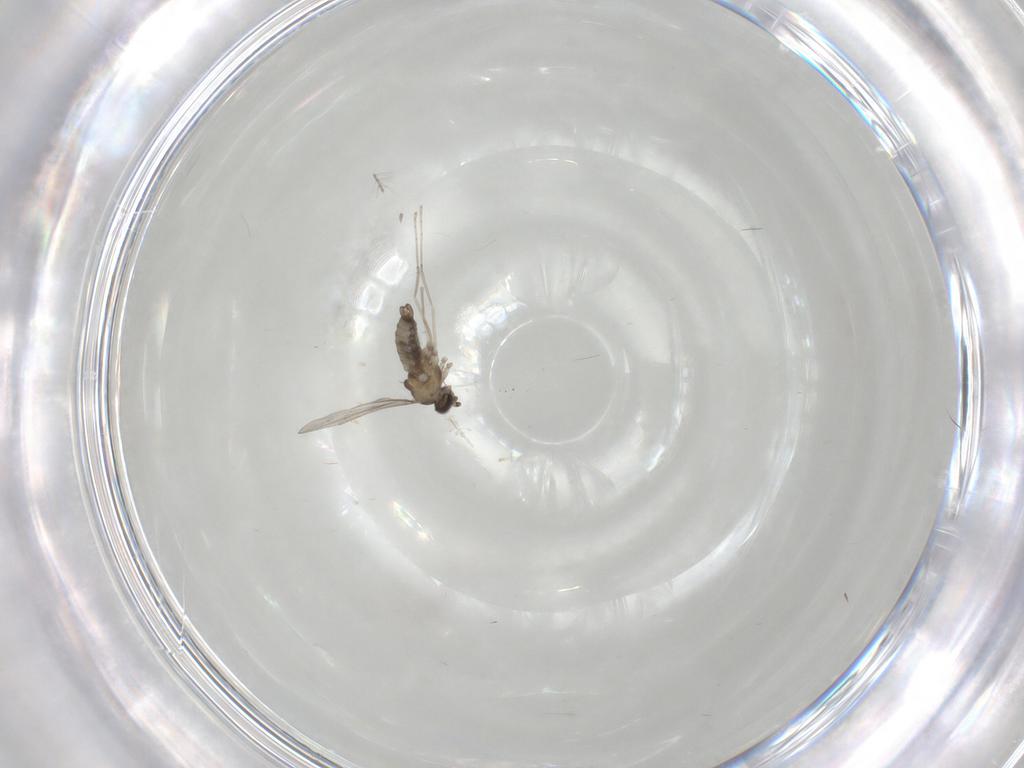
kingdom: Animalia
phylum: Arthropoda
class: Insecta
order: Diptera
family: Cecidomyiidae
